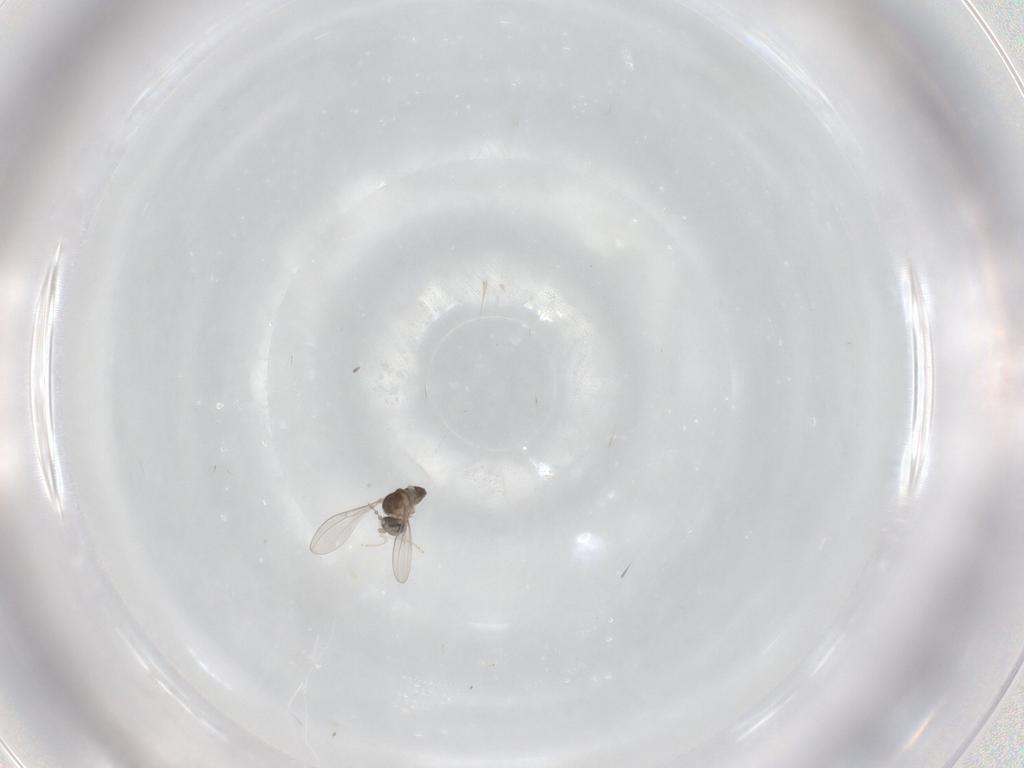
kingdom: Animalia
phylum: Arthropoda
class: Insecta
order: Diptera
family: Cecidomyiidae
